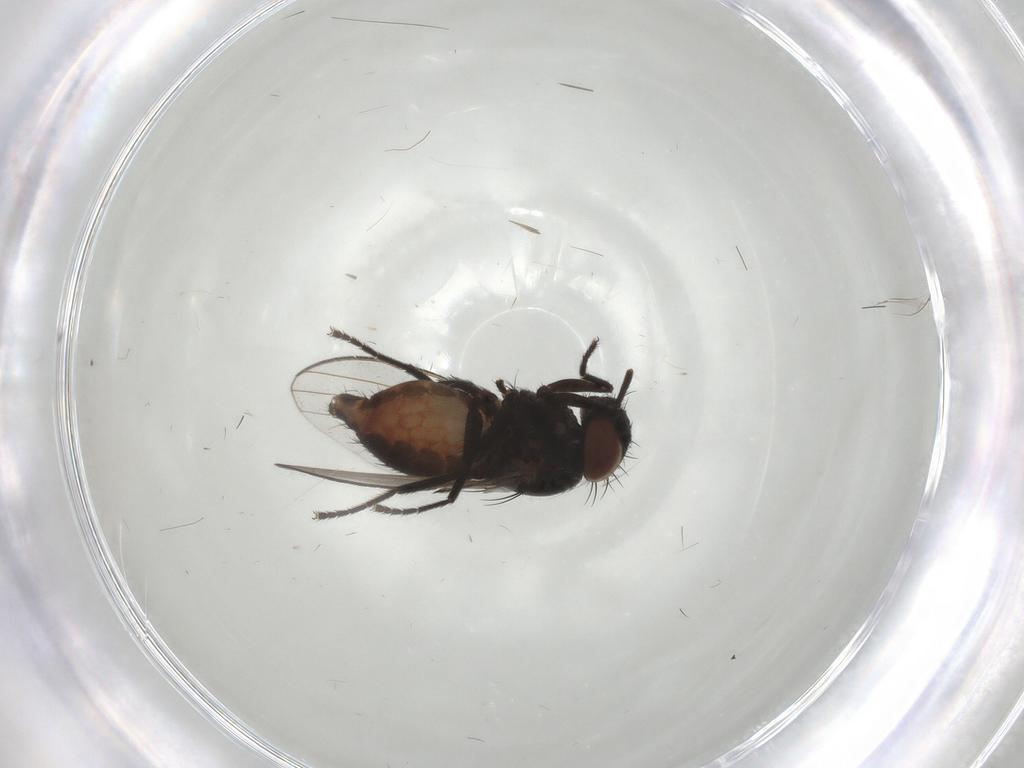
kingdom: Animalia
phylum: Arthropoda
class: Insecta
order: Diptera
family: Milichiidae
